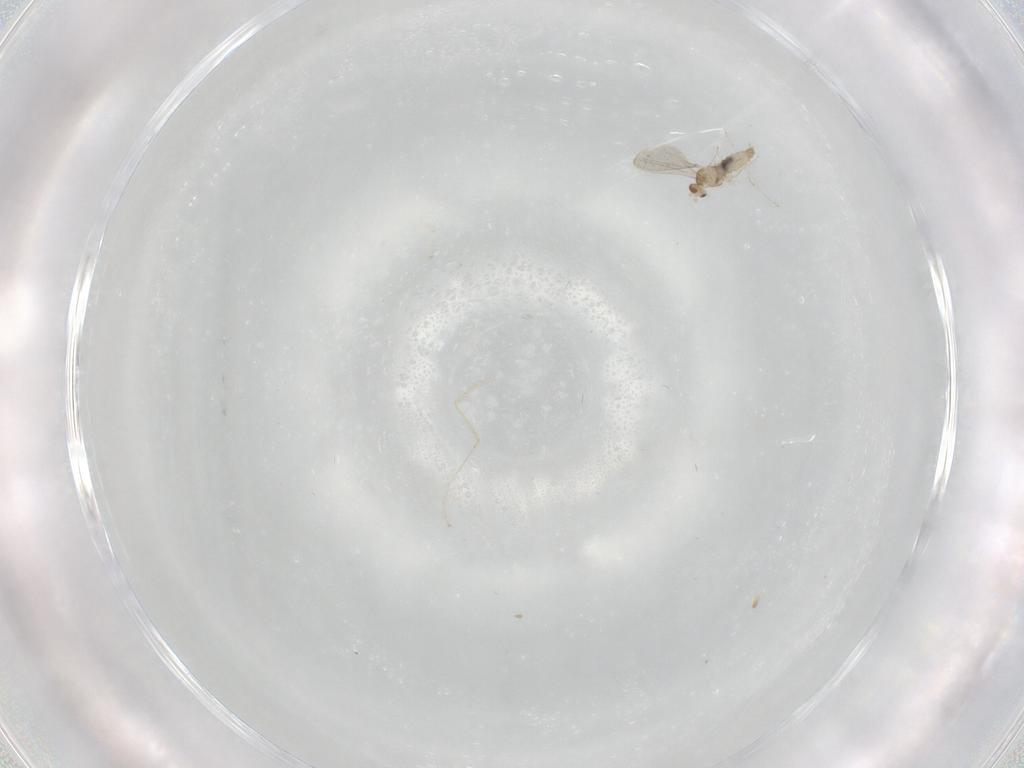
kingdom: Animalia
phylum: Arthropoda
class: Insecta
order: Diptera
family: Cecidomyiidae
